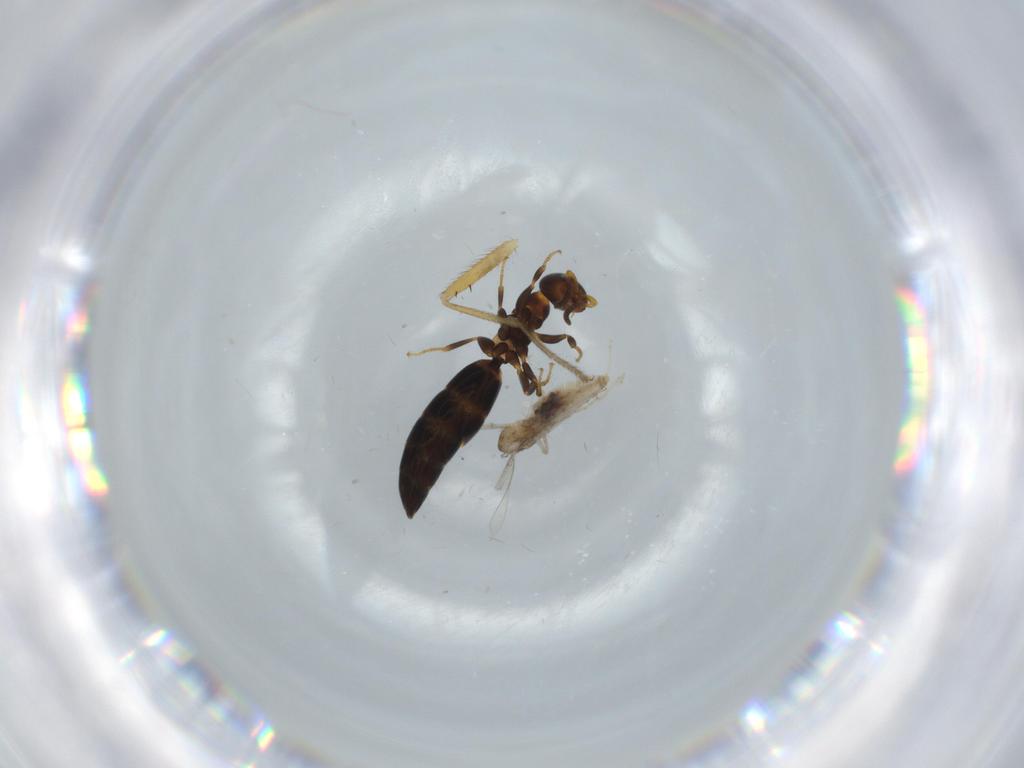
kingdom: Animalia
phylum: Arthropoda
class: Insecta
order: Diptera
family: Cecidomyiidae
